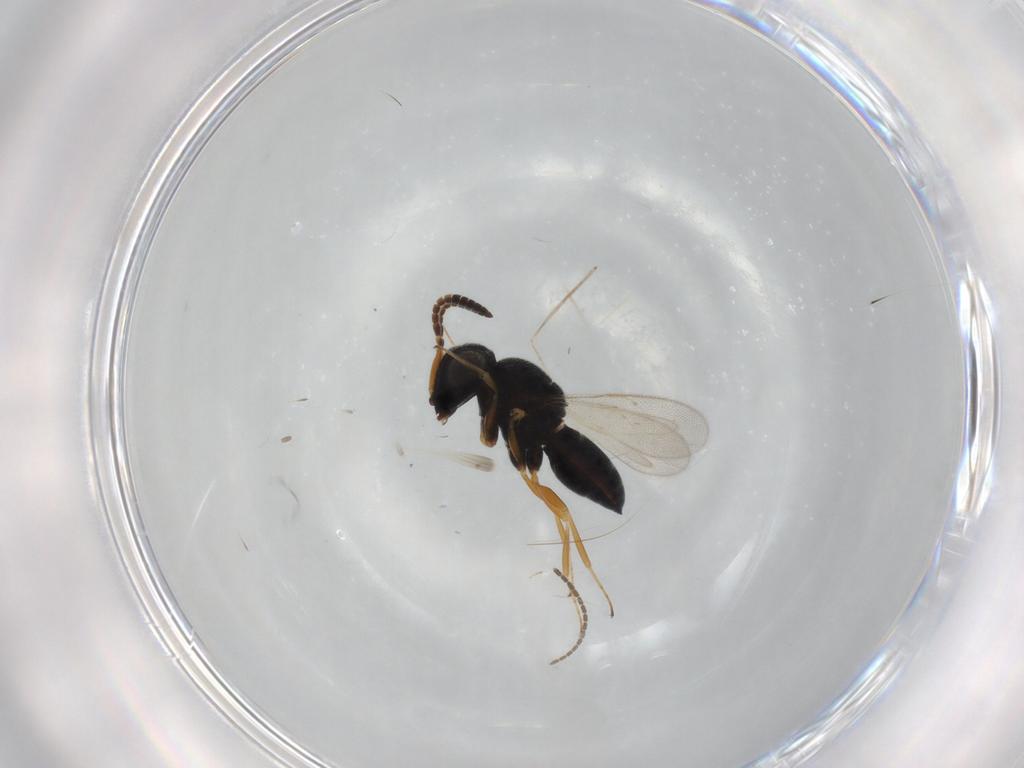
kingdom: Animalia
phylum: Arthropoda
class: Insecta
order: Hymenoptera
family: Scelionidae
